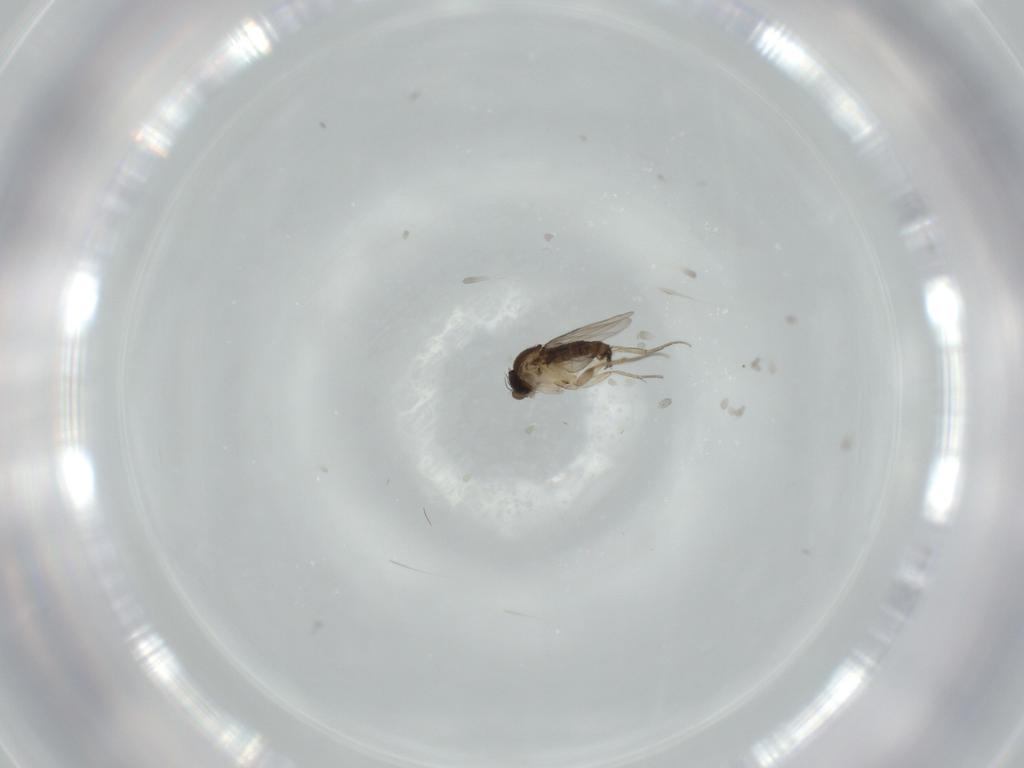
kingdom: Animalia
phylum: Arthropoda
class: Insecta
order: Diptera
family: Phoridae
